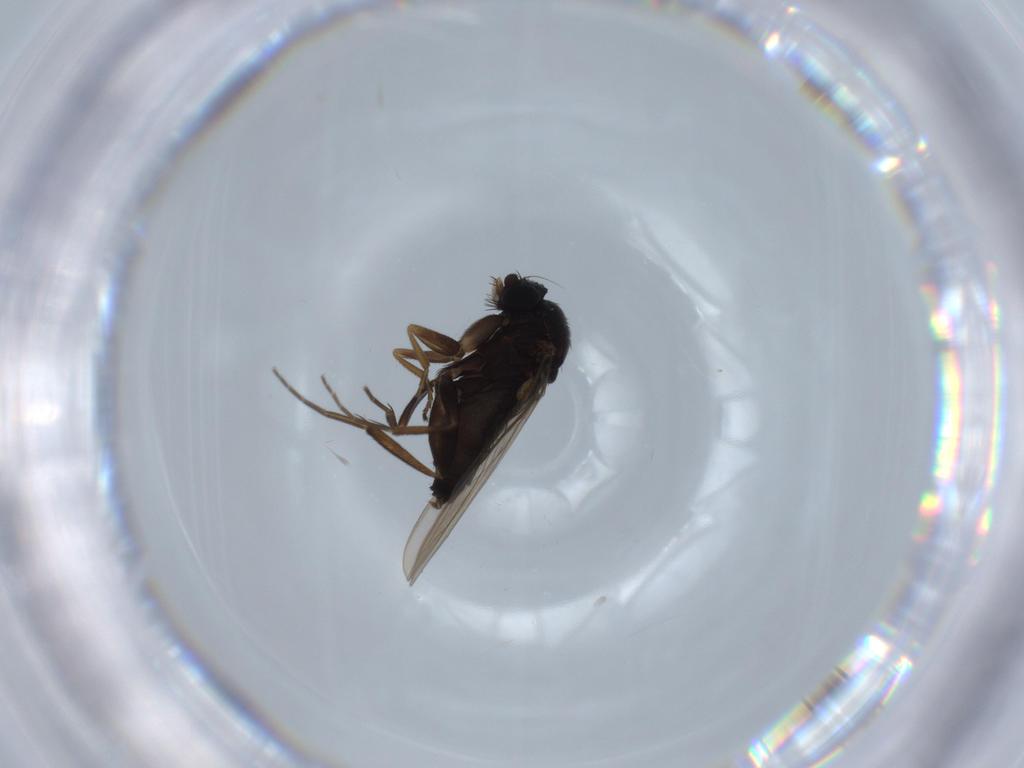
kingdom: Animalia
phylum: Arthropoda
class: Insecta
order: Diptera
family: Phoridae
